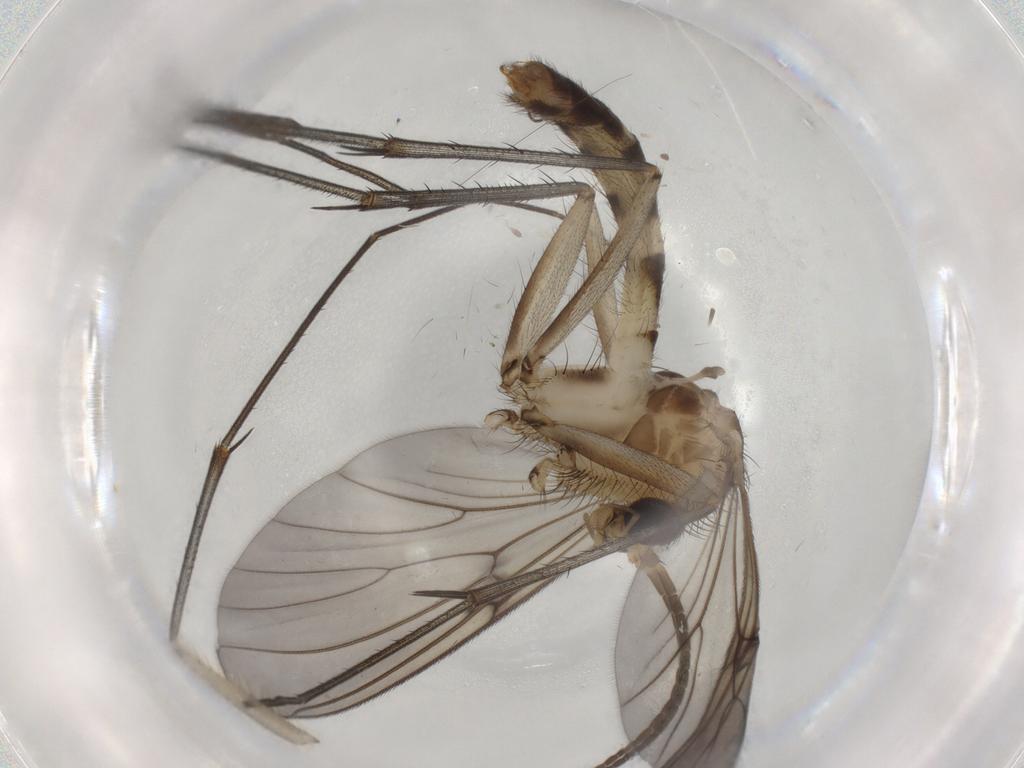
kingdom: Animalia
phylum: Arthropoda
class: Insecta
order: Diptera
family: Mycetophilidae
